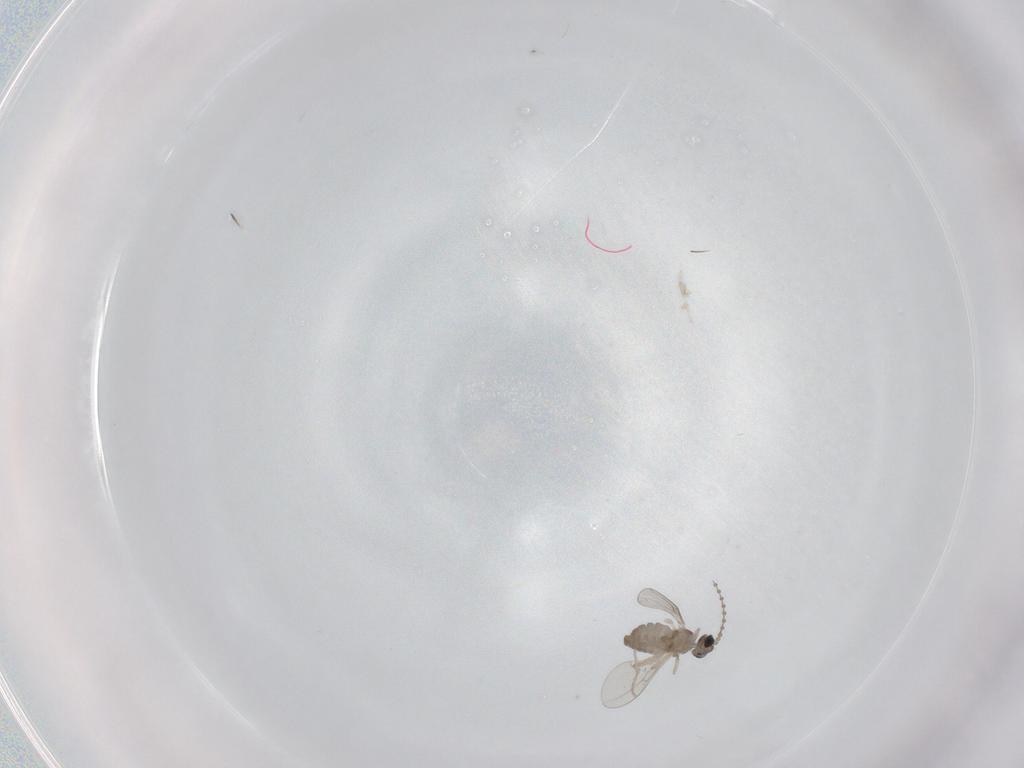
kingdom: Animalia
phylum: Arthropoda
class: Insecta
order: Diptera
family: Cecidomyiidae
